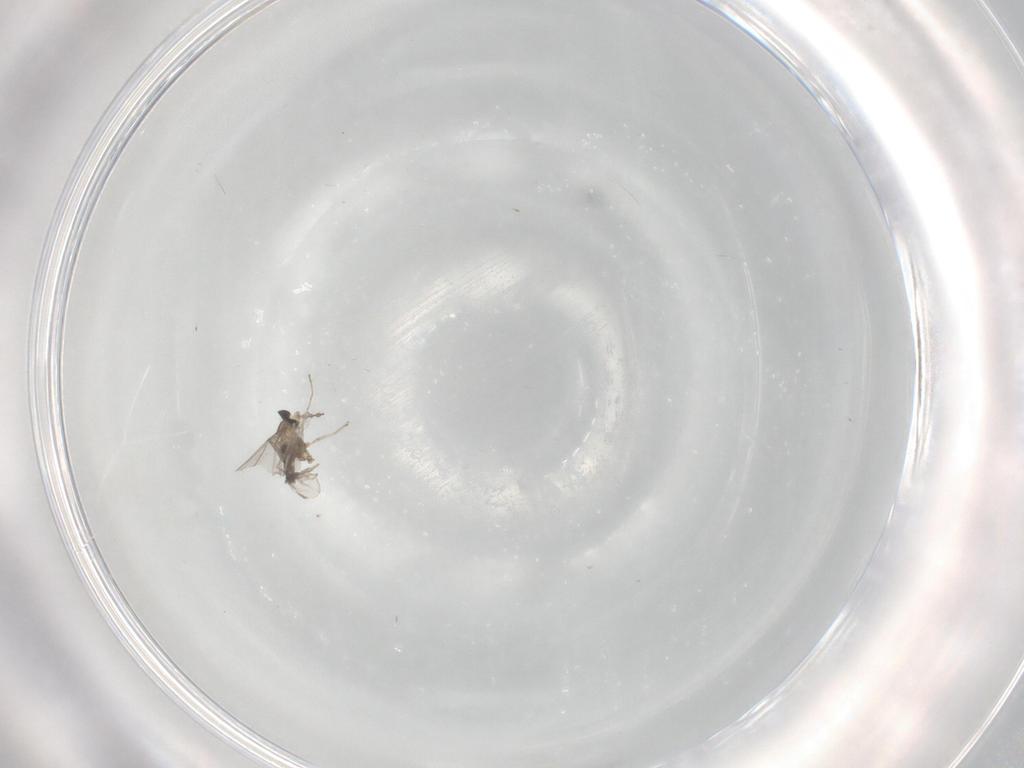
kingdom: Animalia
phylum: Arthropoda
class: Insecta
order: Diptera
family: Cecidomyiidae
